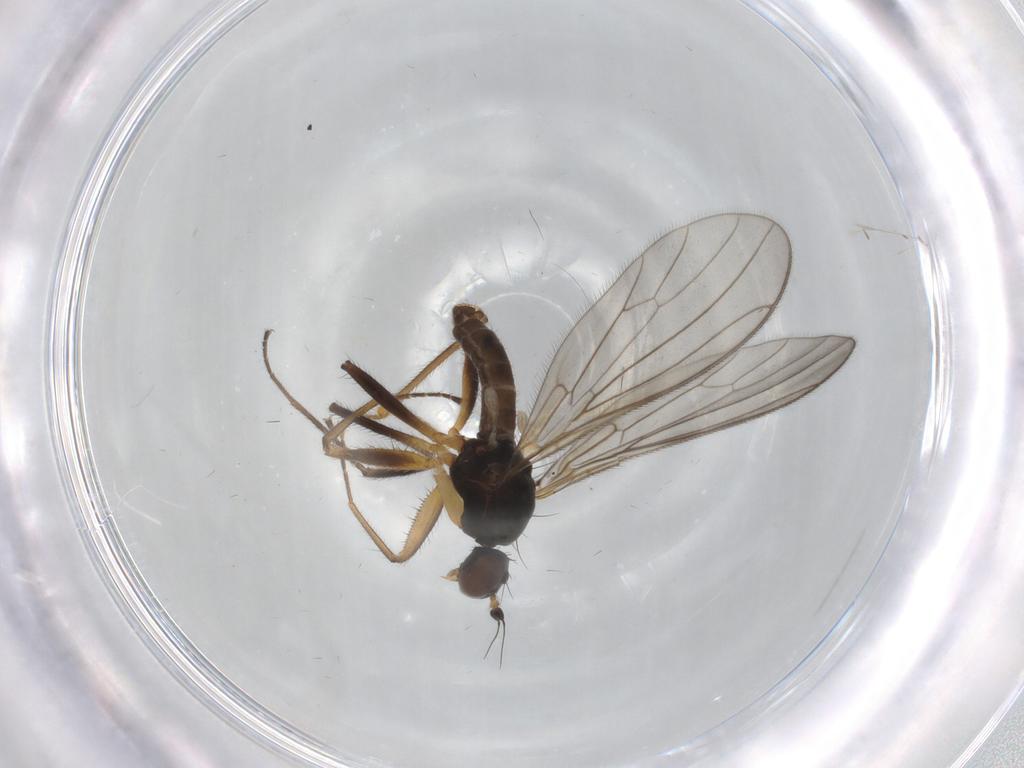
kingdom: Animalia
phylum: Arthropoda
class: Insecta
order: Diptera
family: Empididae
